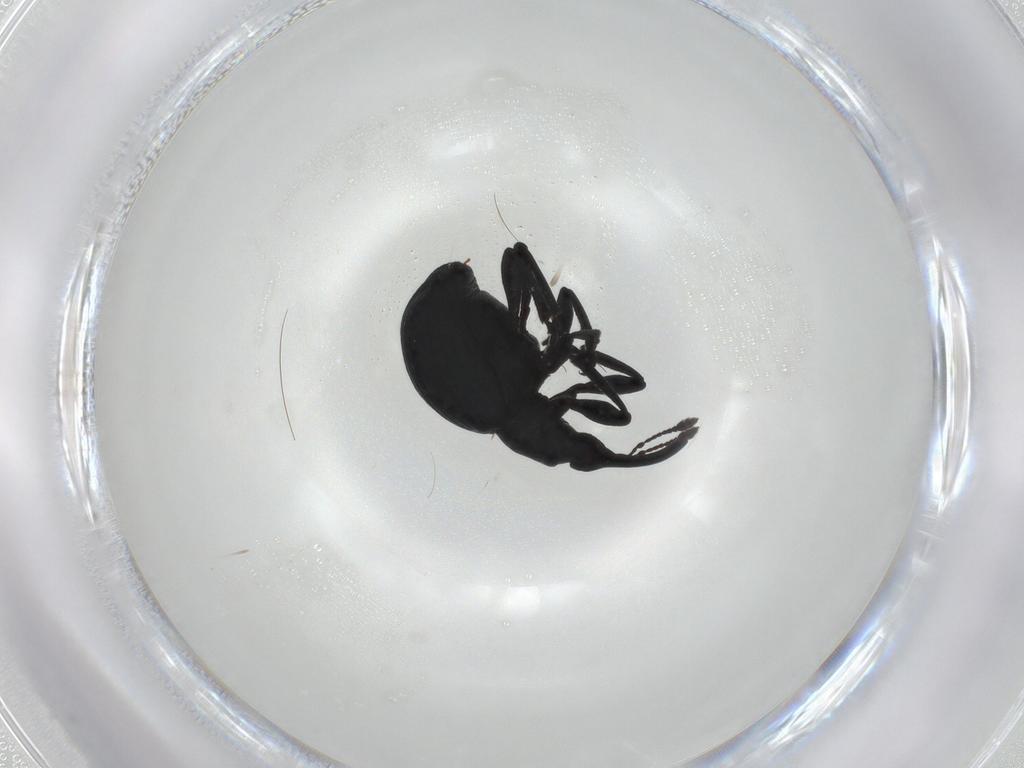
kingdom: Animalia
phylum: Arthropoda
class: Insecta
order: Coleoptera
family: Brentidae
